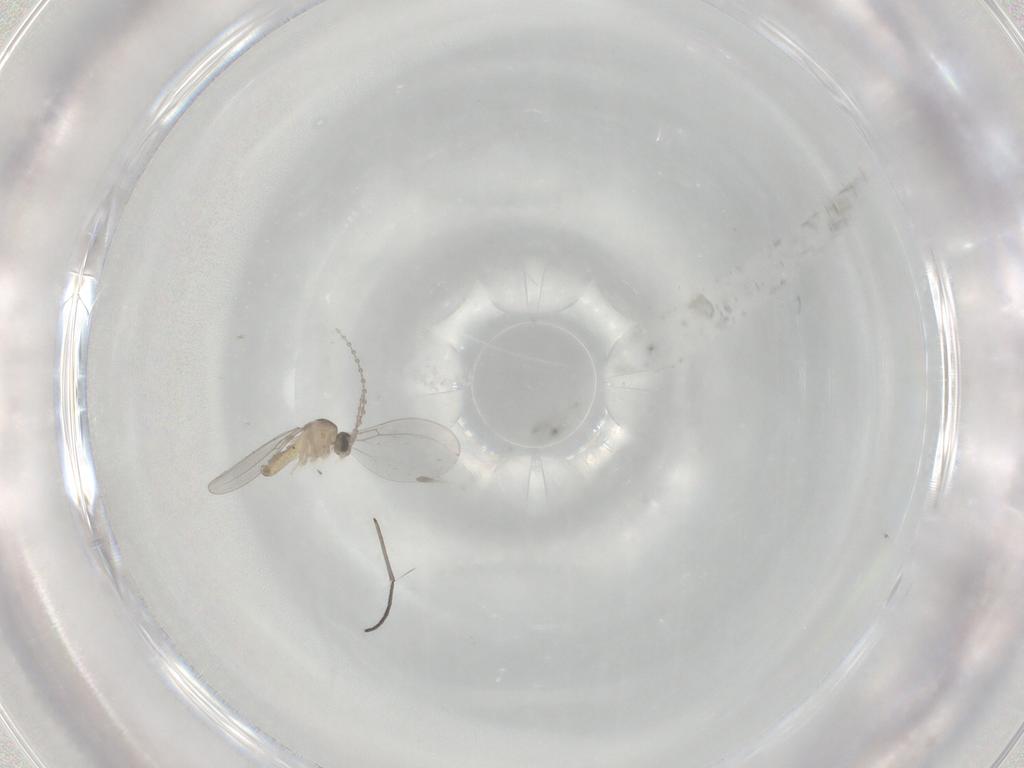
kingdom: Animalia
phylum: Arthropoda
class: Insecta
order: Diptera
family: Cecidomyiidae
